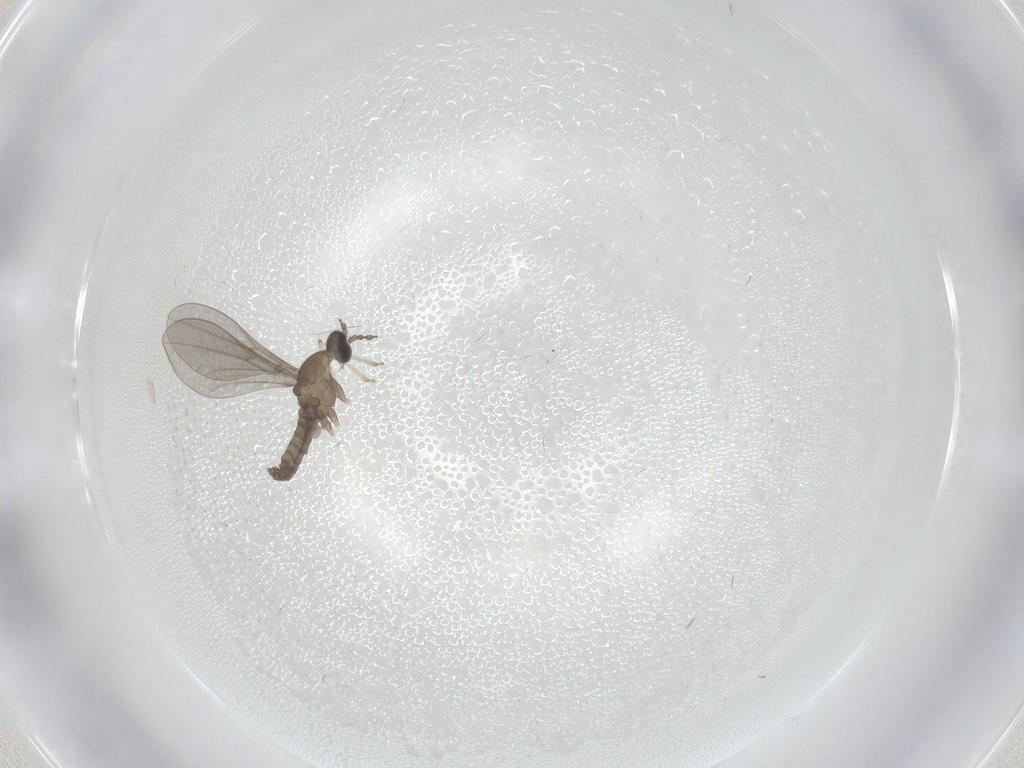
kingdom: Animalia
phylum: Arthropoda
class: Insecta
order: Diptera
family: Cecidomyiidae
